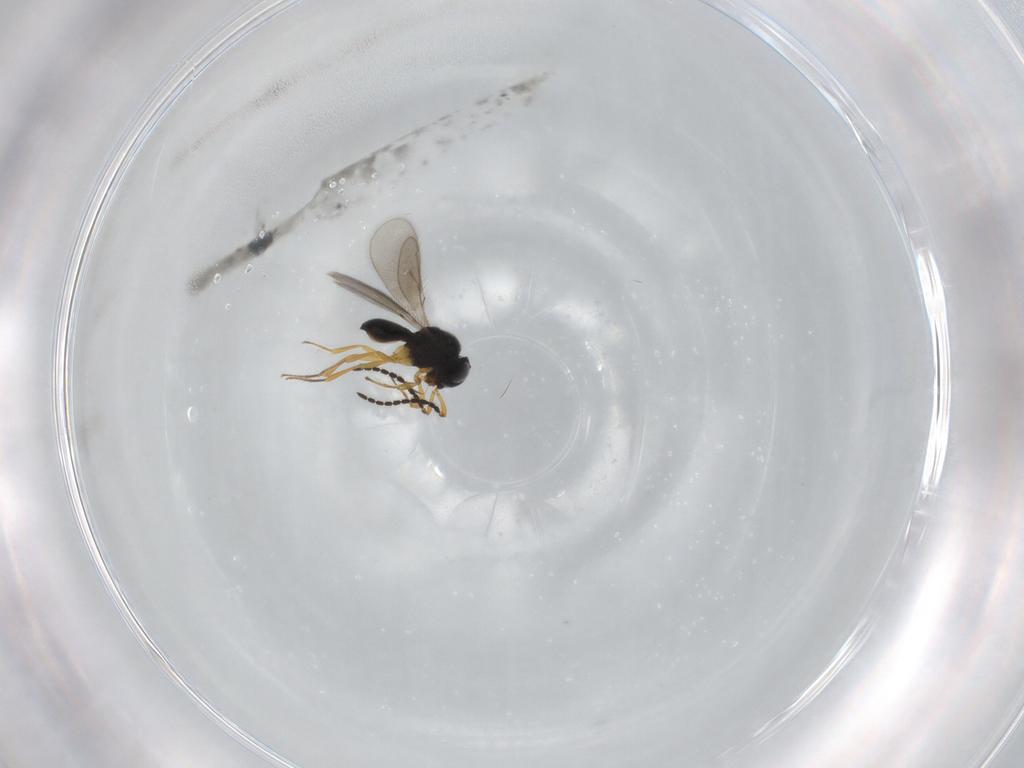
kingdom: Animalia
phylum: Arthropoda
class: Insecta
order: Hymenoptera
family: Scelionidae
